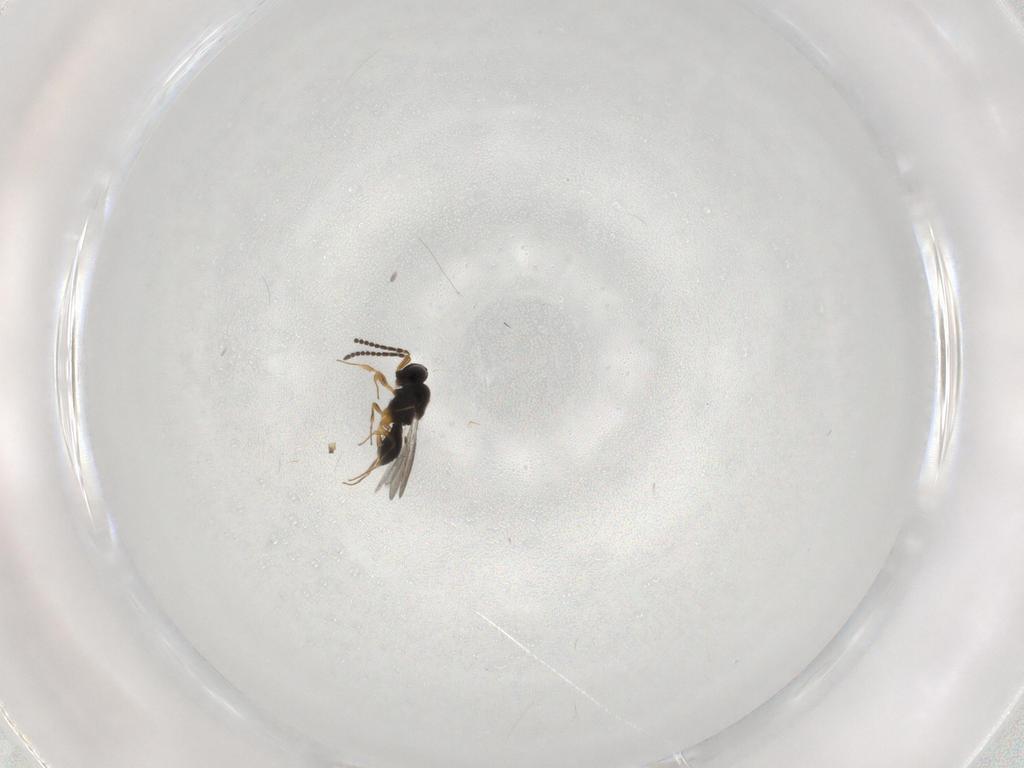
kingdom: Animalia
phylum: Arthropoda
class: Insecta
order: Hymenoptera
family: Scelionidae
